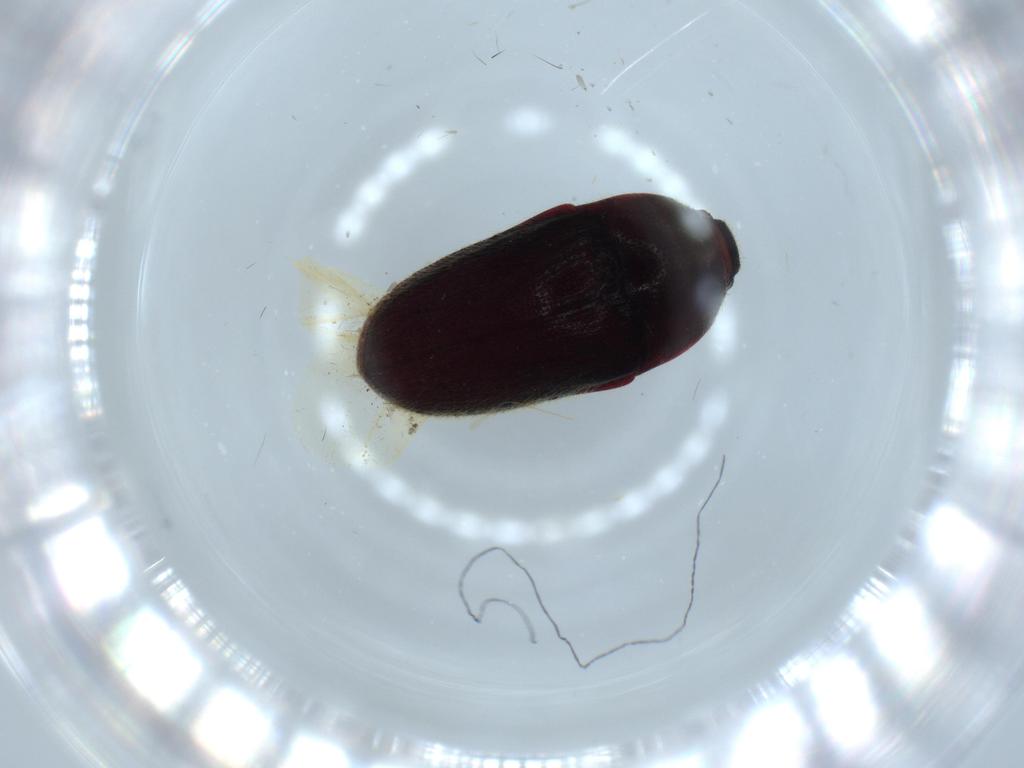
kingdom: Animalia
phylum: Arthropoda
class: Insecta
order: Coleoptera
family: Throscidae
